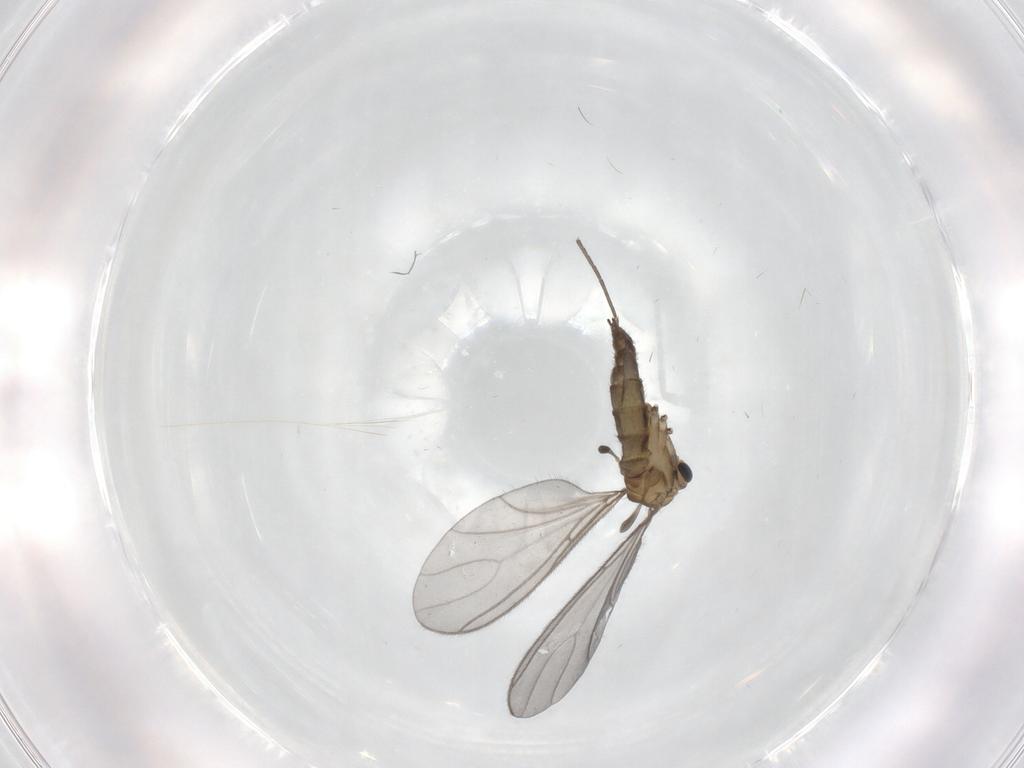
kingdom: Animalia
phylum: Arthropoda
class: Insecta
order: Diptera
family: Sciaridae
